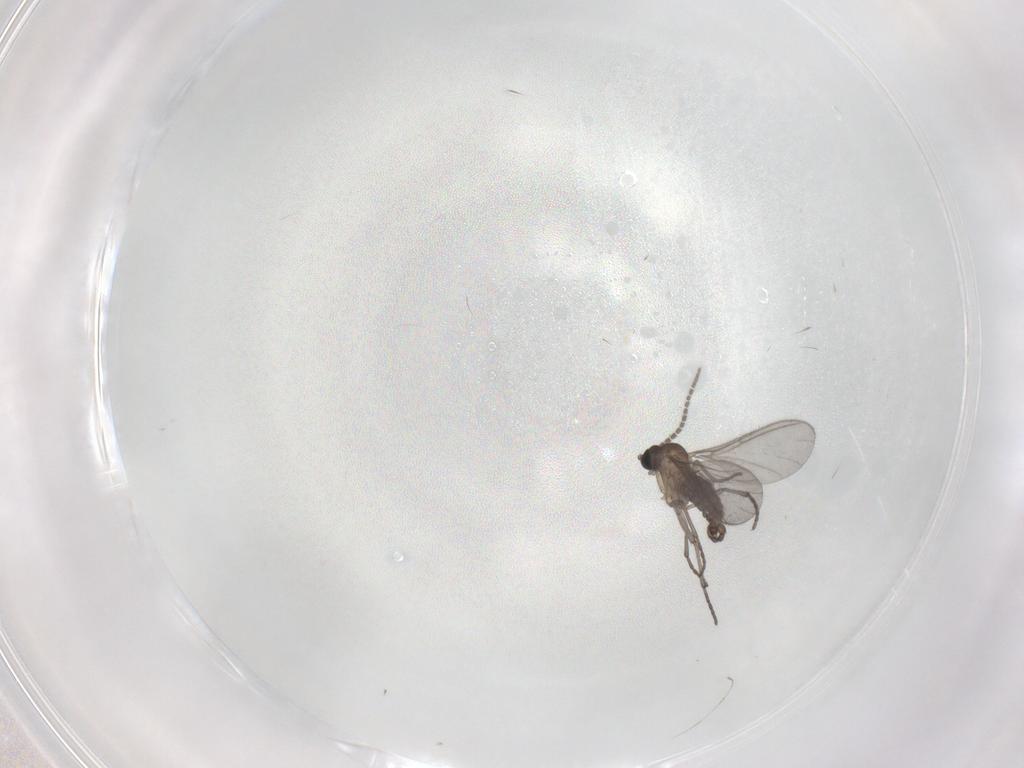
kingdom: Animalia
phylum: Arthropoda
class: Insecta
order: Diptera
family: Sciaridae
